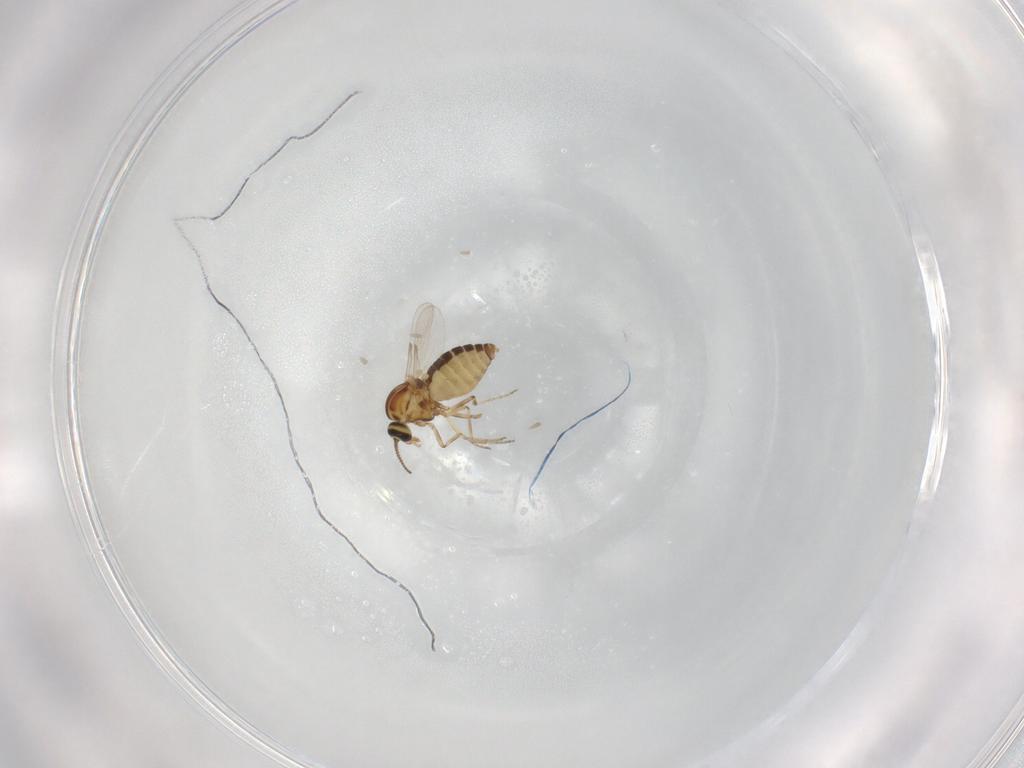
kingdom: Animalia
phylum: Arthropoda
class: Insecta
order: Diptera
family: Ceratopogonidae
